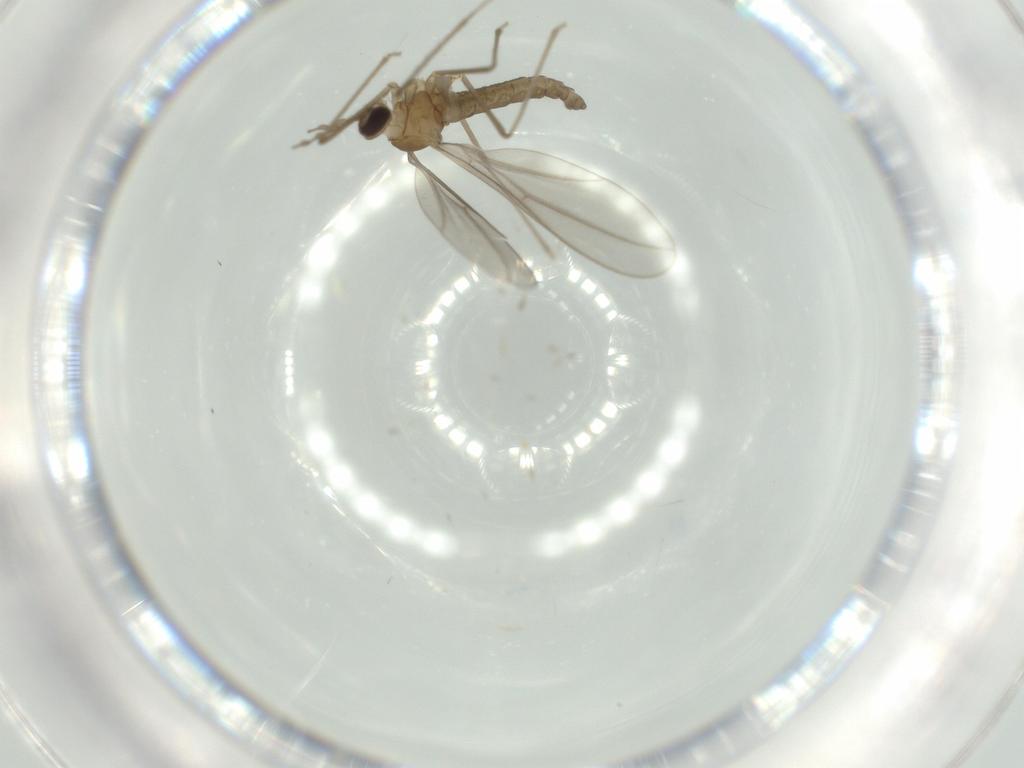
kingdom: Animalia
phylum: Arthropoda
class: Insecta
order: Diptera
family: Cecidomyiidae
